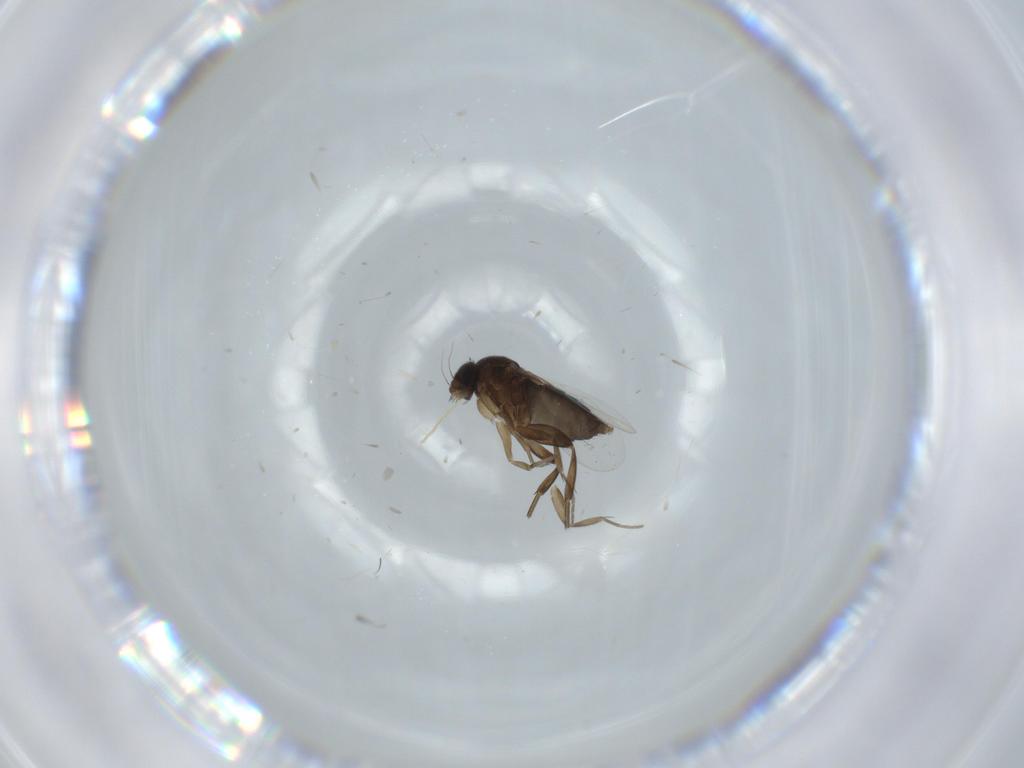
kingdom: Animalia
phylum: Arthropoda
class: Insecta
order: Diptera
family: Phoridae
